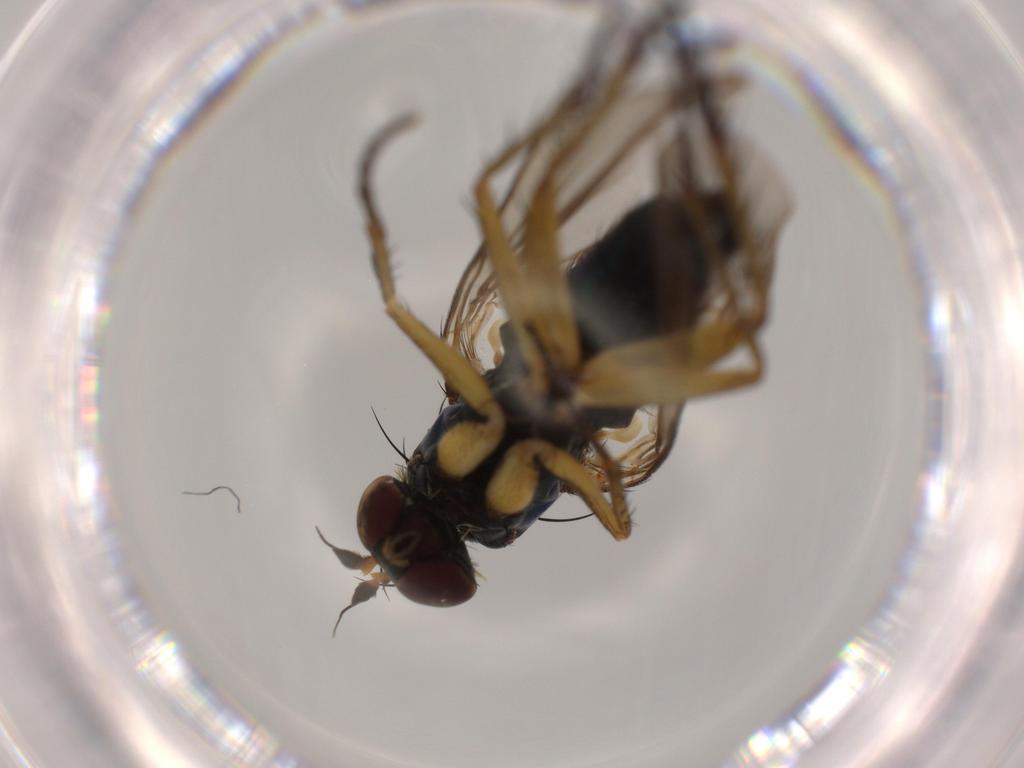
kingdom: Animalia
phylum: Arthropoda
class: Insecta
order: Diptera
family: Dolichopodidae
